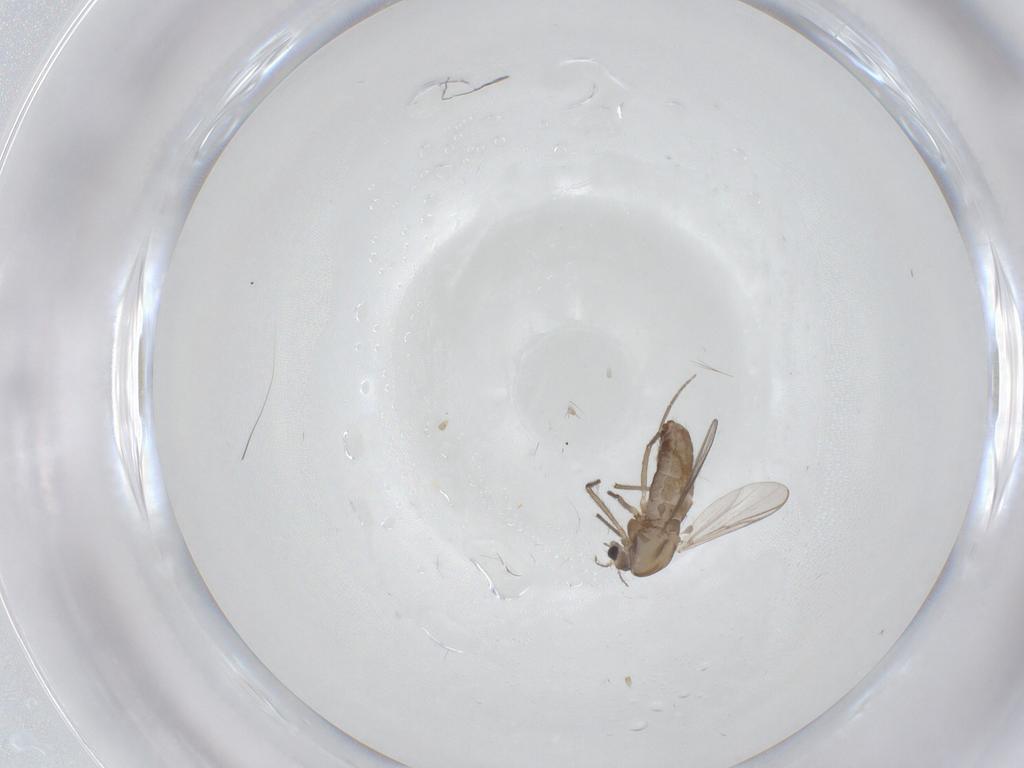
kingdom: Animalia
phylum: Arthropoda
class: Insecta
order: Diptera
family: Chironomidae
